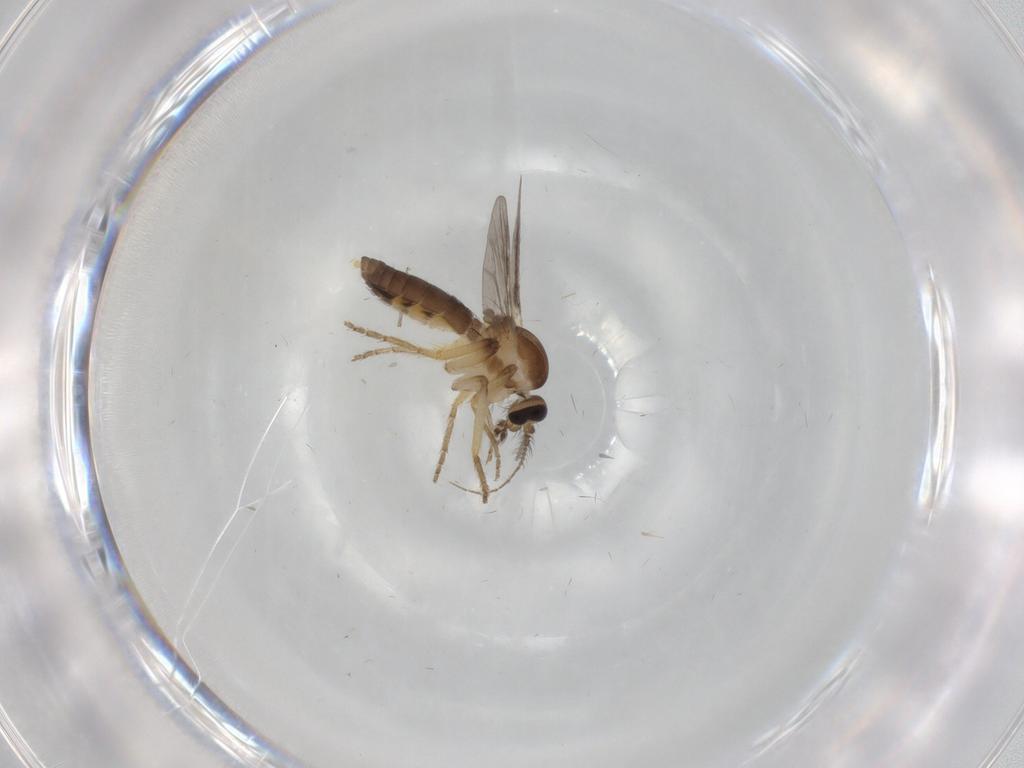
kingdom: Animalia
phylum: Arthropoda
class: Insecta
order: Diptera
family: Ceratopogonidae
